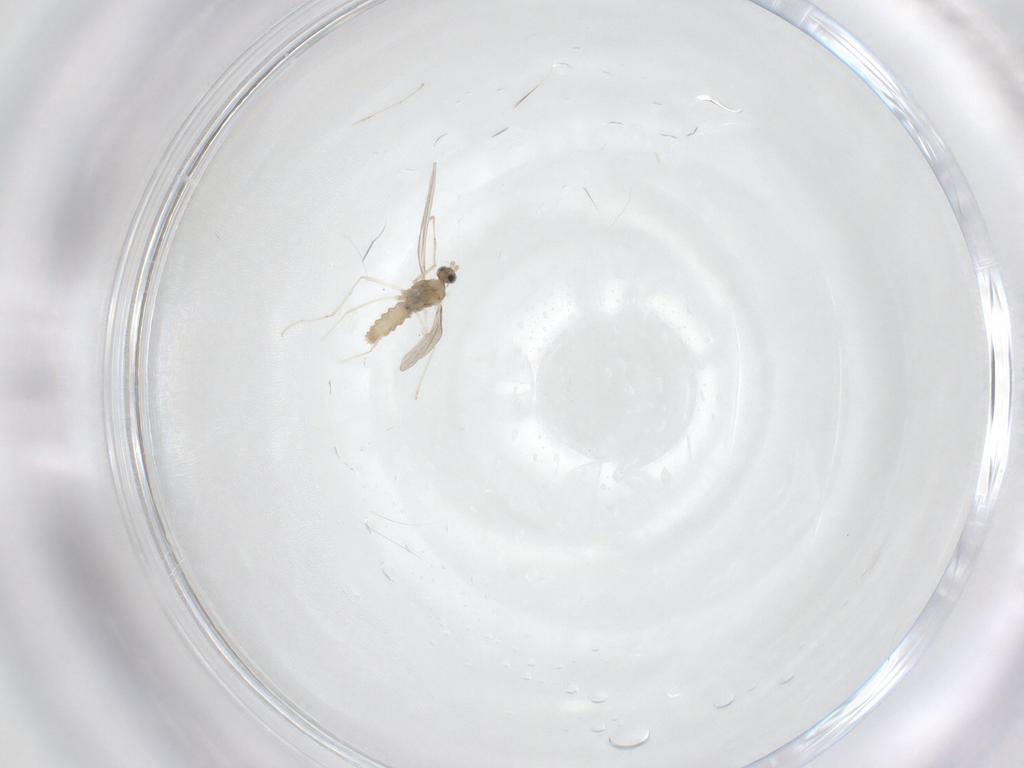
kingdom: Animalia
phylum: Arthropoda
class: Insecta
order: Diptera
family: Cecidomyiidae
